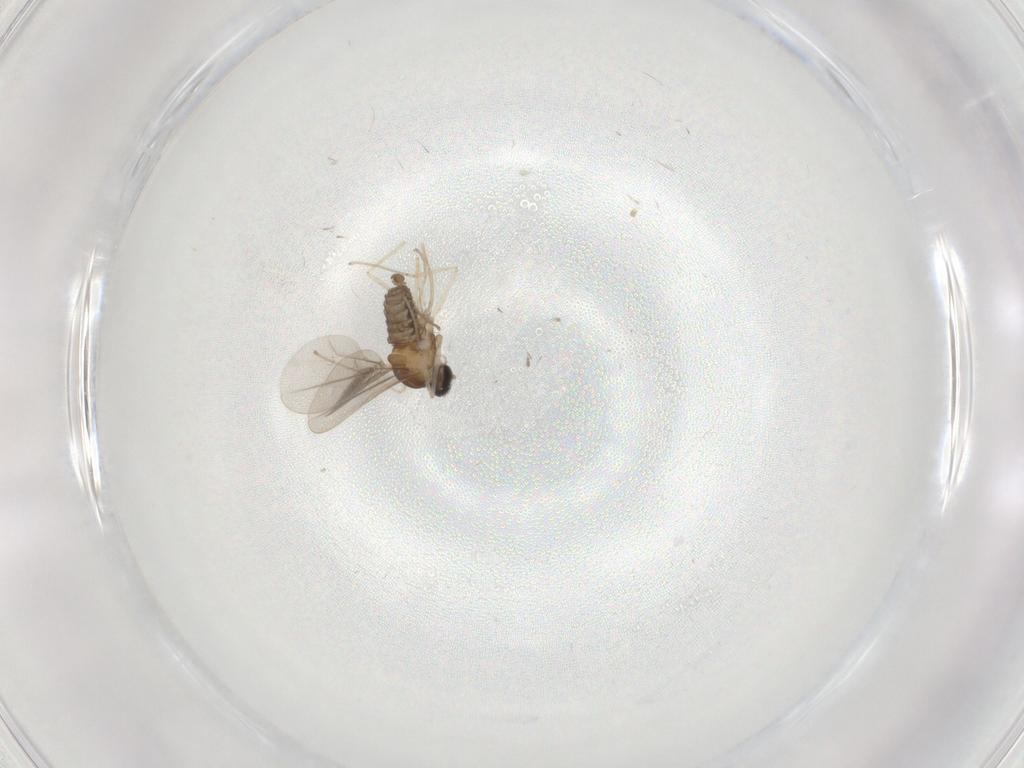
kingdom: Animalia
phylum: Arthropoda
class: Insecta
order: Diptera
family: Cecidomyiidae
